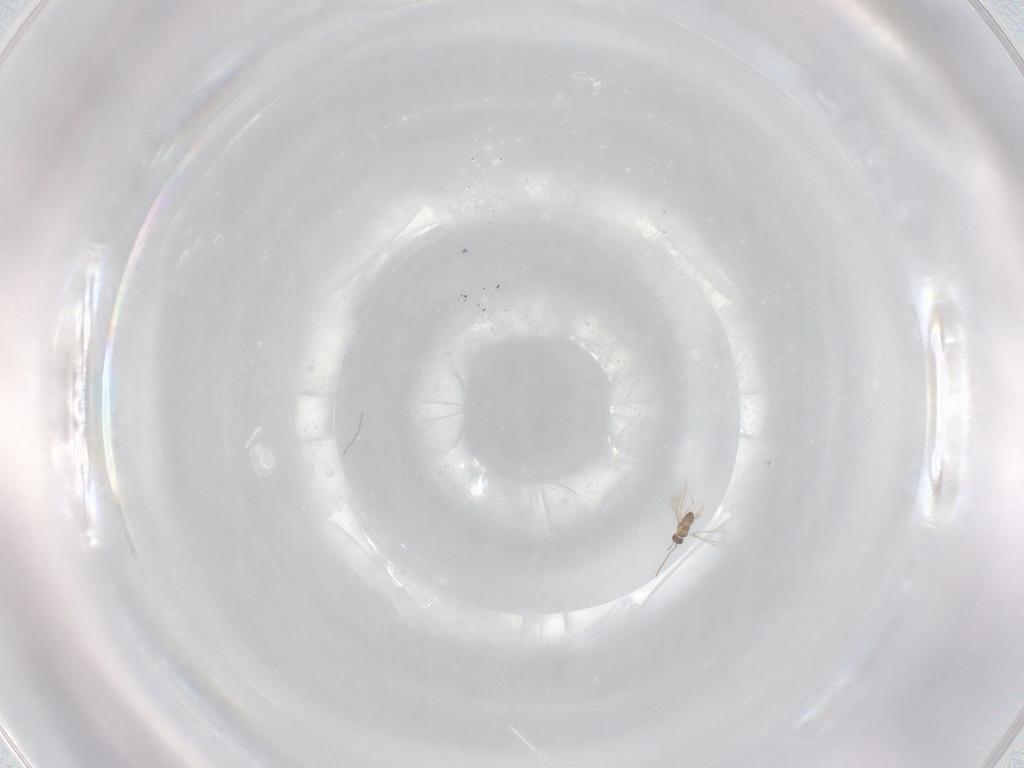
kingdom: Animalia
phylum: Arthropoda
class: Insecta
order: Hymenoptera
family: Mymaridae
